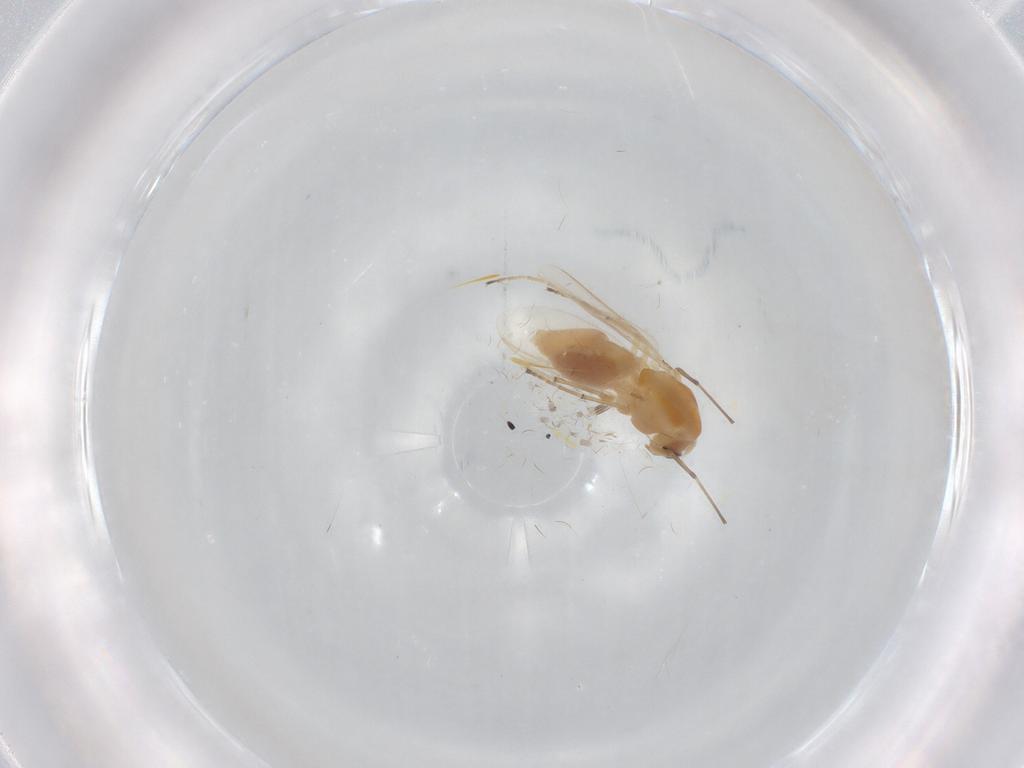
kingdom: Animalia
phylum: Arthropoda
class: Insecta
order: Diptera
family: Chironomidae
